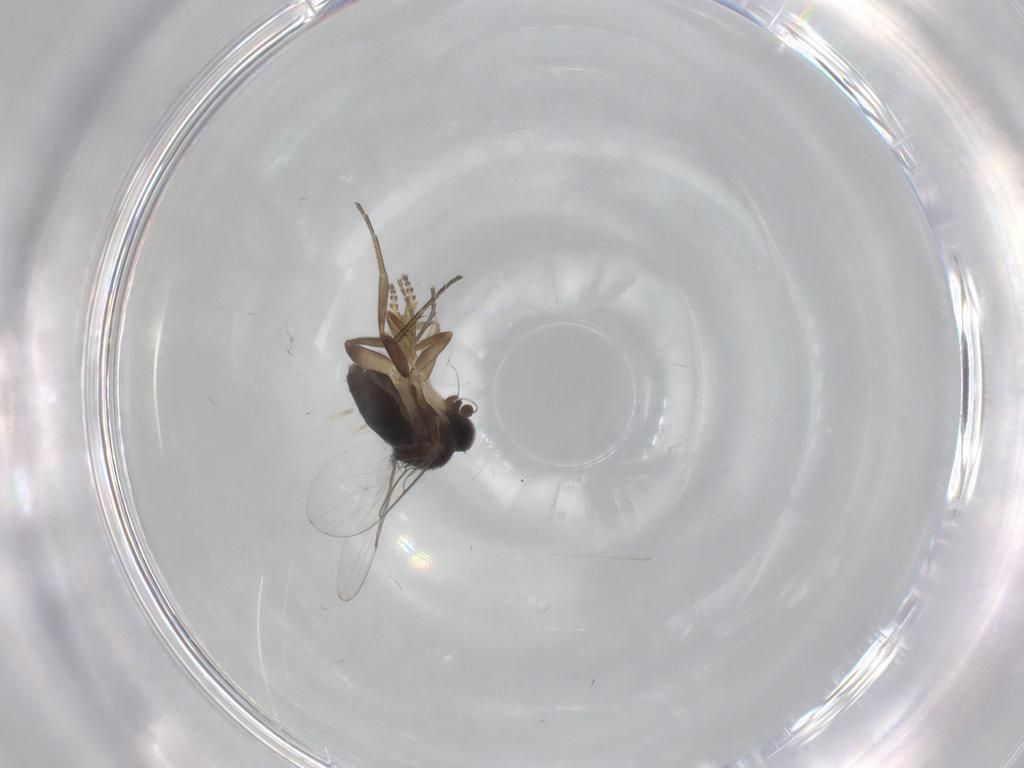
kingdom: Animalia
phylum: Arthropoda
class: Insecta
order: Diptera
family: Phoridae
